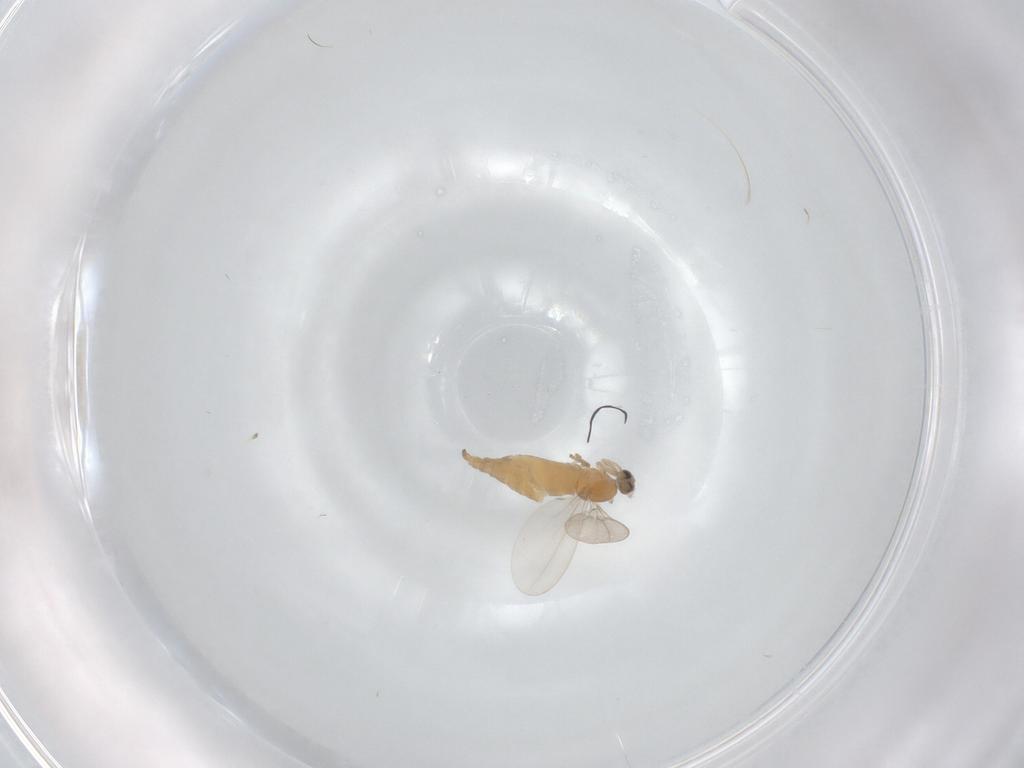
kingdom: Animalia
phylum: Arthropoda
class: Insecta
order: Diptera
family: Cecidomyiidae
